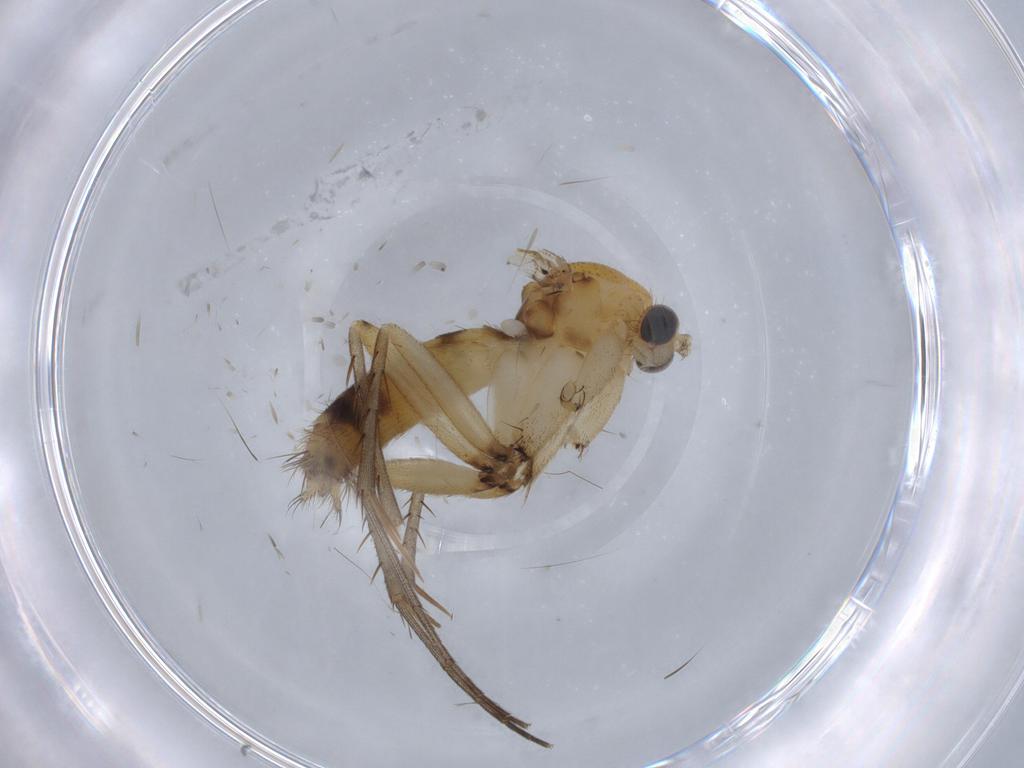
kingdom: Animalia
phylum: Arthropoda
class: Insecta
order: Diptera
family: Mycetophilidae
